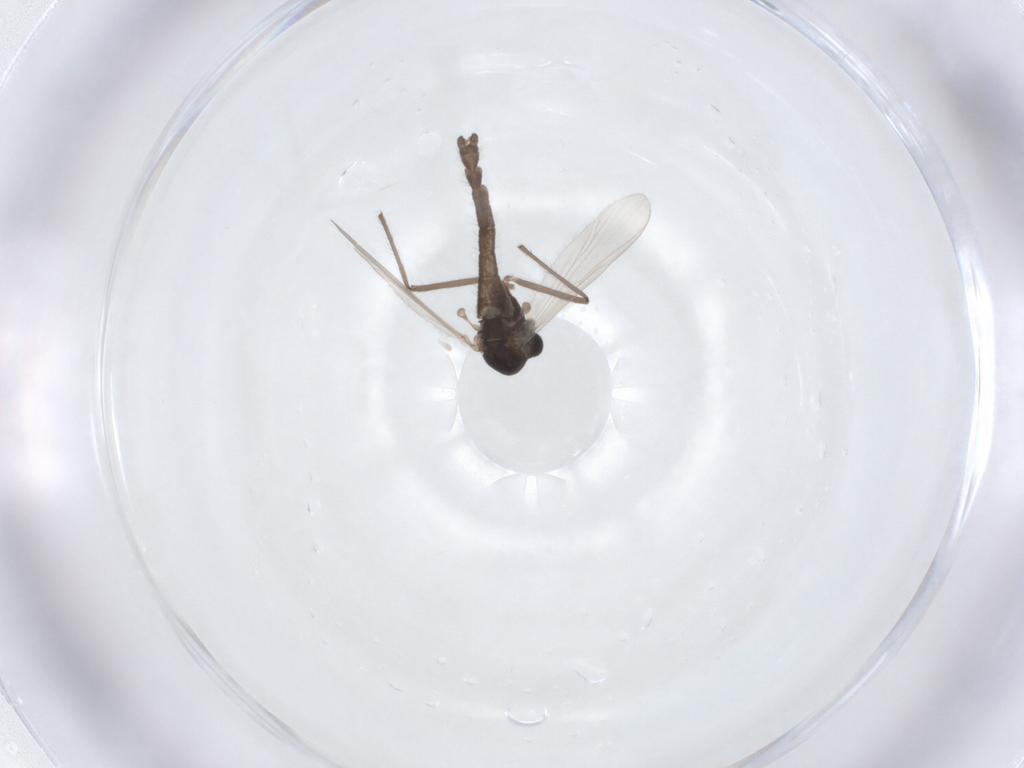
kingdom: Animalia
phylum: Arthropoda
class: Insecta
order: Diptera
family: Chironomidae
